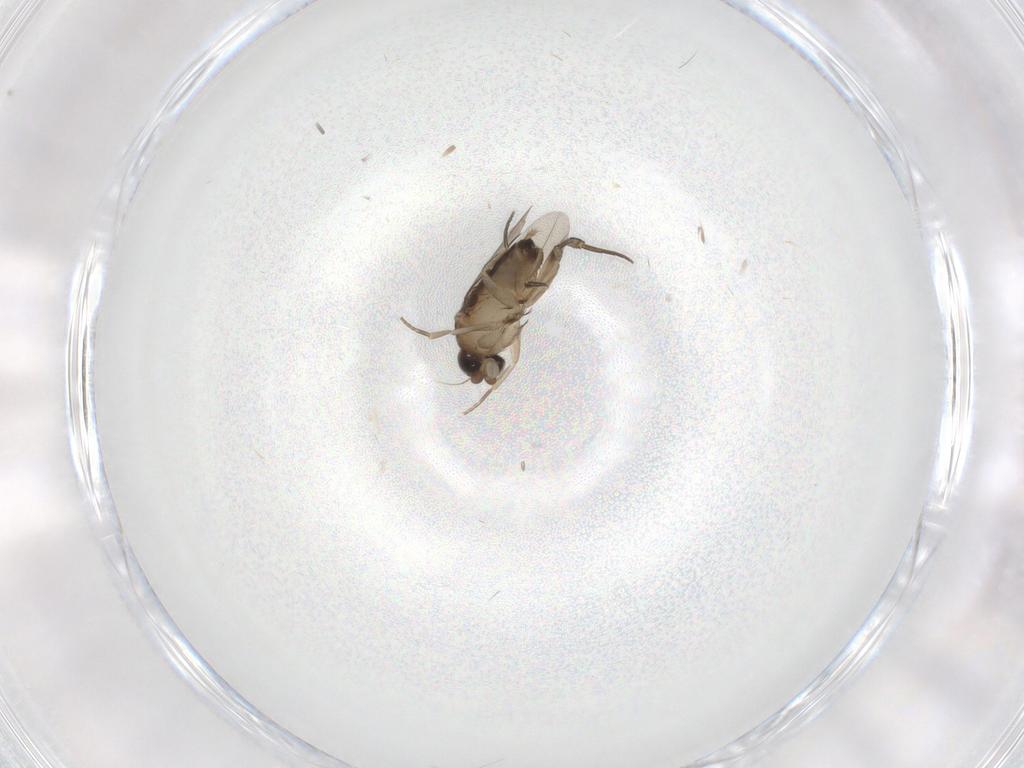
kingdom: Animalia
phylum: Arthropoda
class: Insecta
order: Diptera
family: Phoridae
